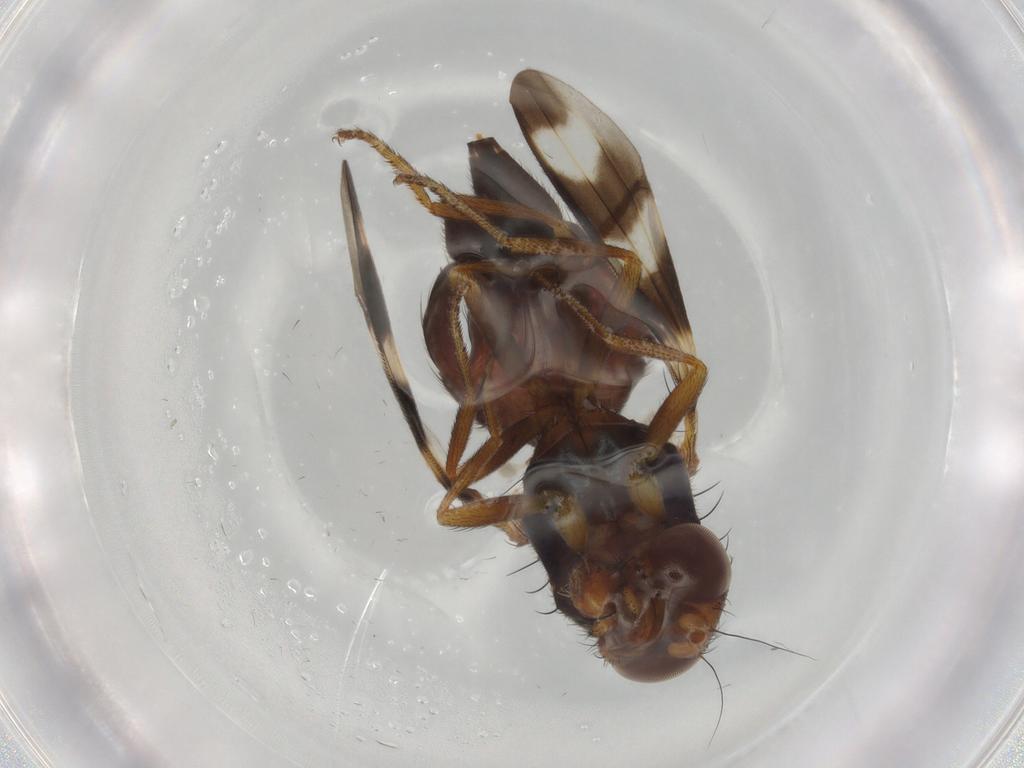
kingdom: Animalia
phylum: Arthropoda
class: Insecta
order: Diptera
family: Ulidiidae
